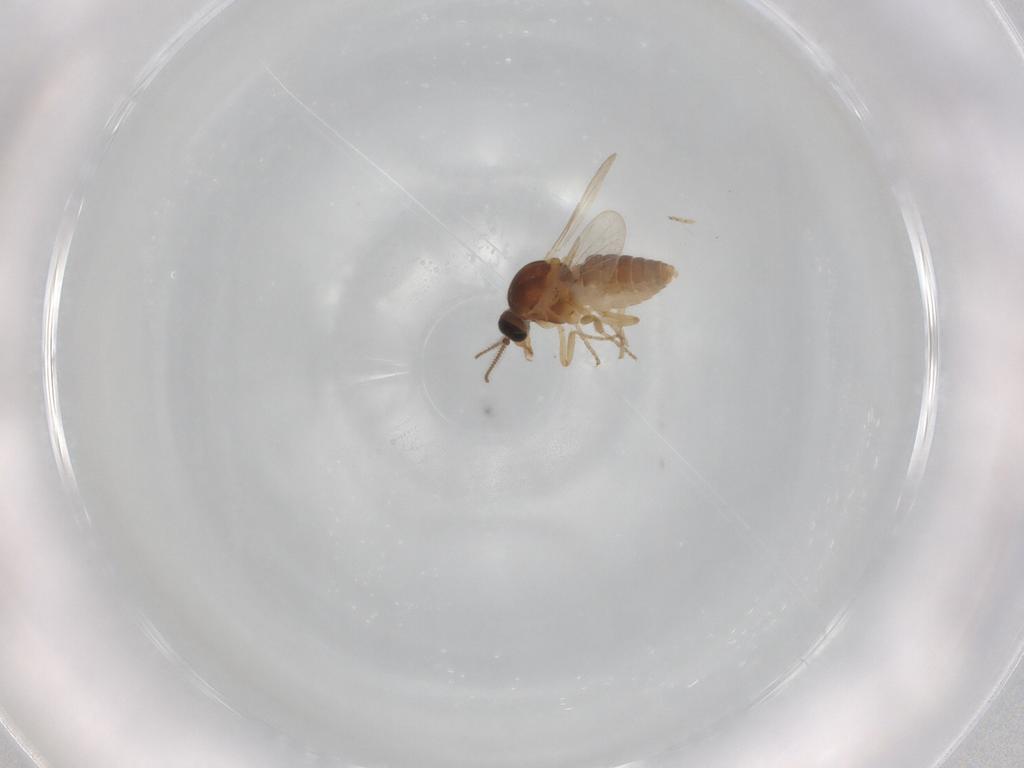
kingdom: Animalia
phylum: Arthropoda
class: Insecta
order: Diptera
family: Ceratopogonidae
